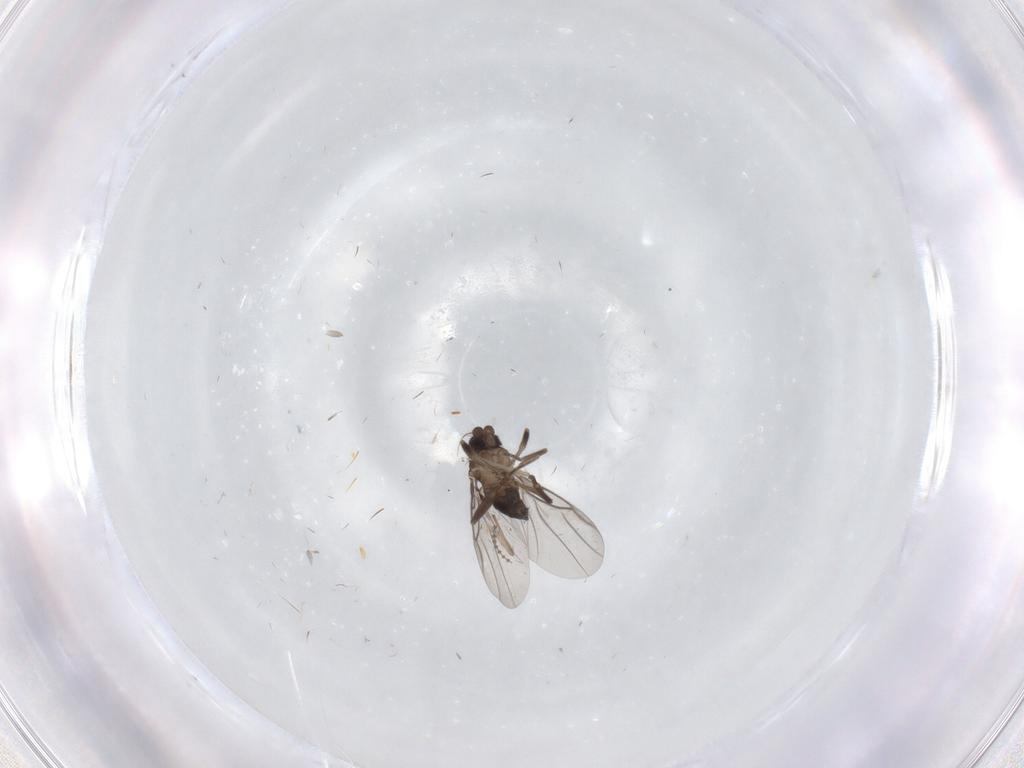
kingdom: Animalia
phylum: Arthropoda
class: Insecta
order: Diptera
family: Phoridae
